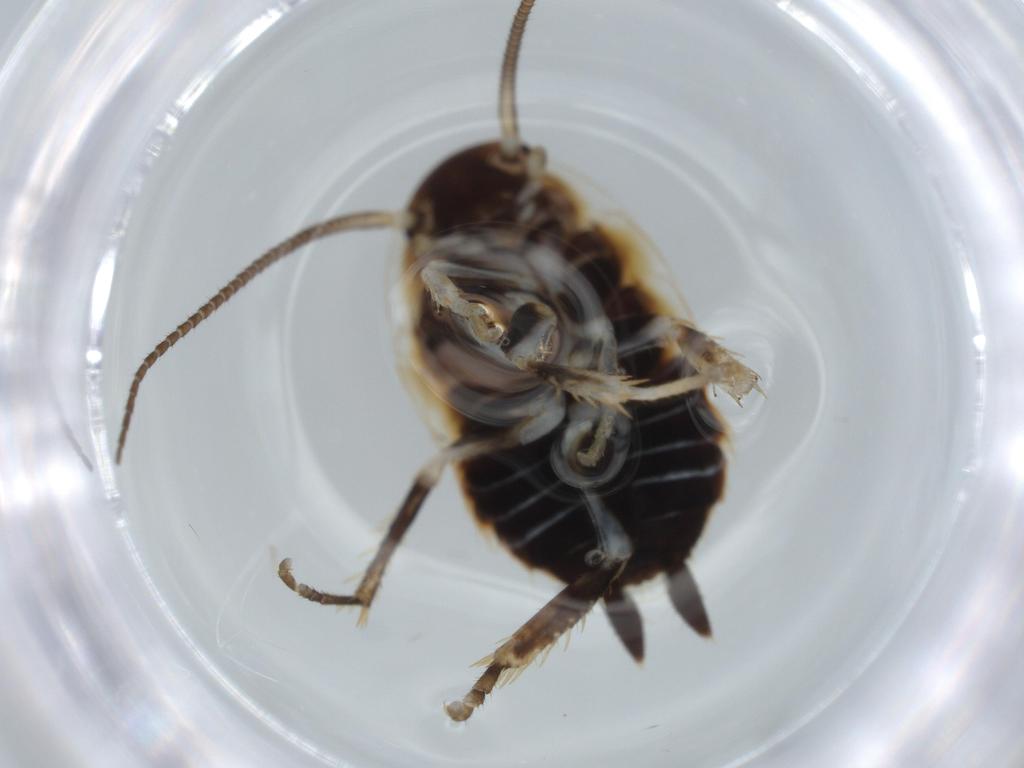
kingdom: Animalia
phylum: Arthropoda
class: Insecta
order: Blattodea
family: Ectobiidae
